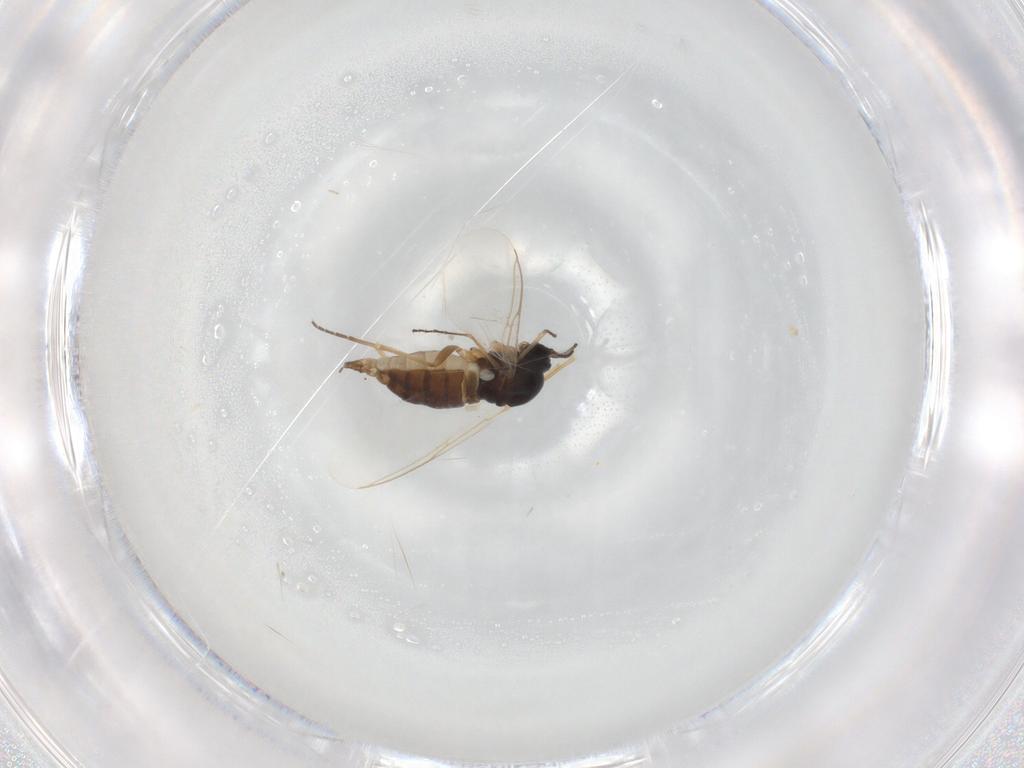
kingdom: Animalia
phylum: Arthropoda
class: Insecta
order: Diptera
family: Sciaridae
